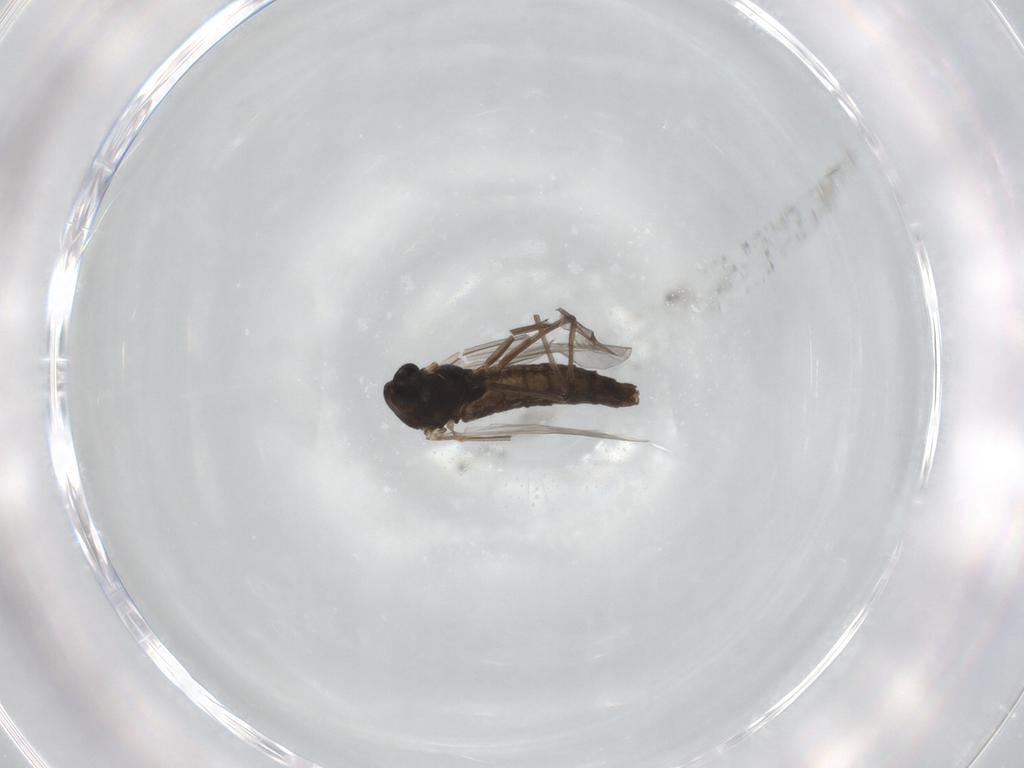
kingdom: Animalia
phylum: Arthropoda
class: Insecta
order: Diptera
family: Chironomidae
